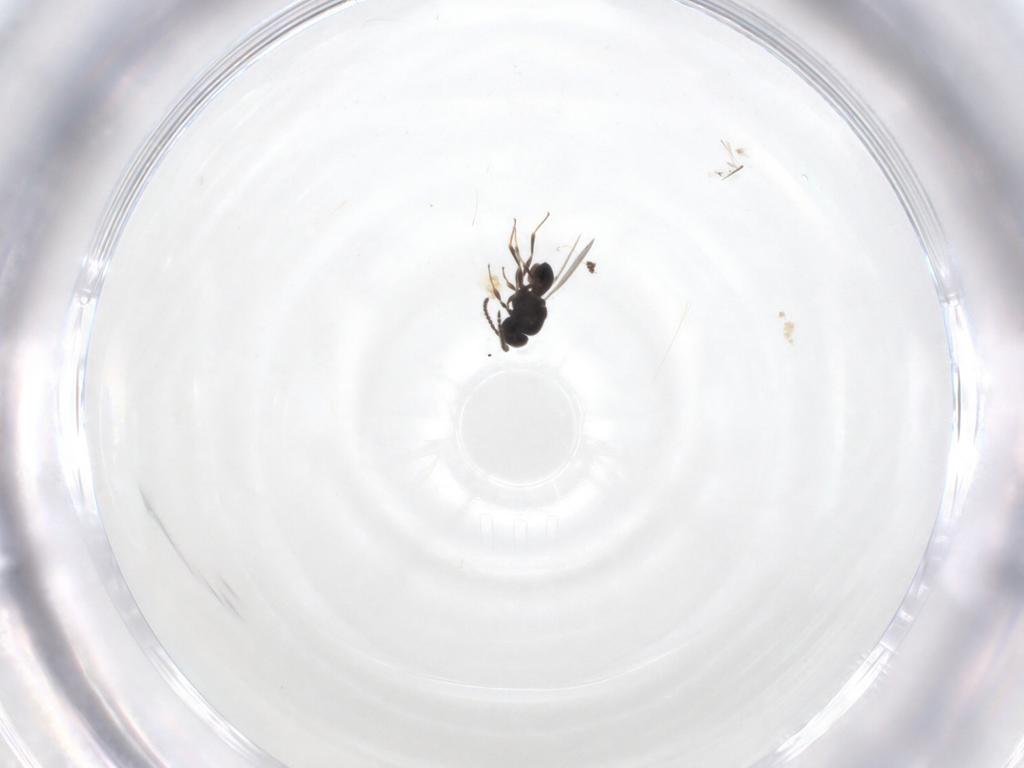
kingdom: Animalia
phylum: Arthropoda
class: Insecta
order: Hymenoptera
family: Scelionidae
